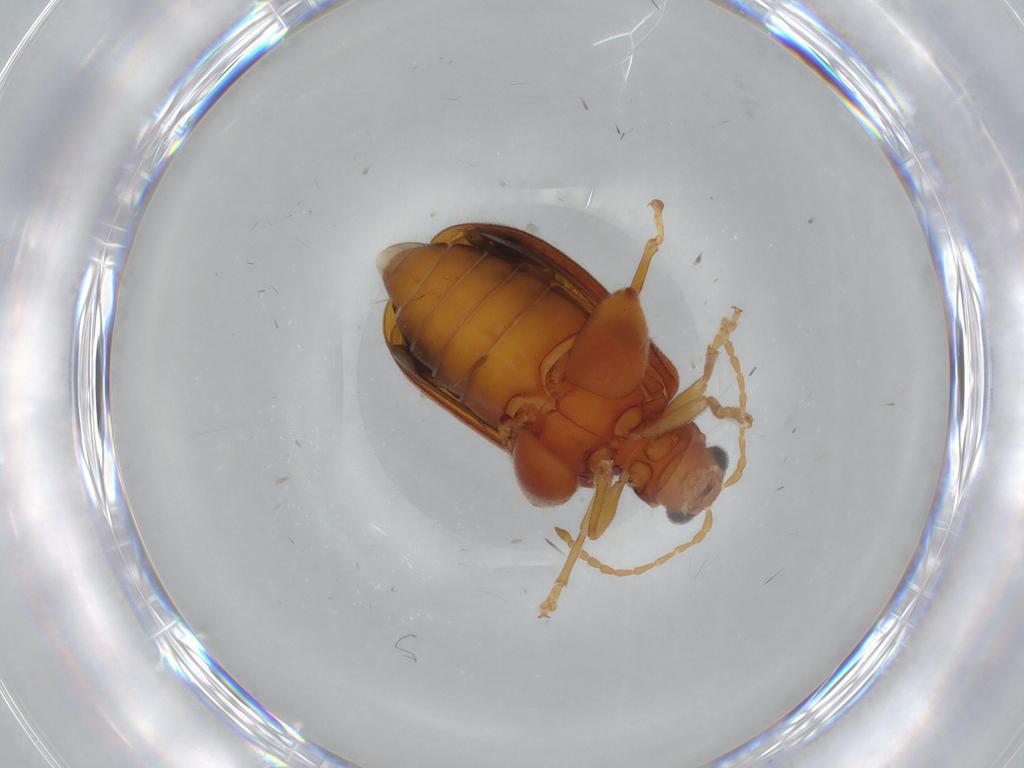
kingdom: Animalia
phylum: Arthropoda
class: Insecta
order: Coleoptera
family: Chrysomelidae
